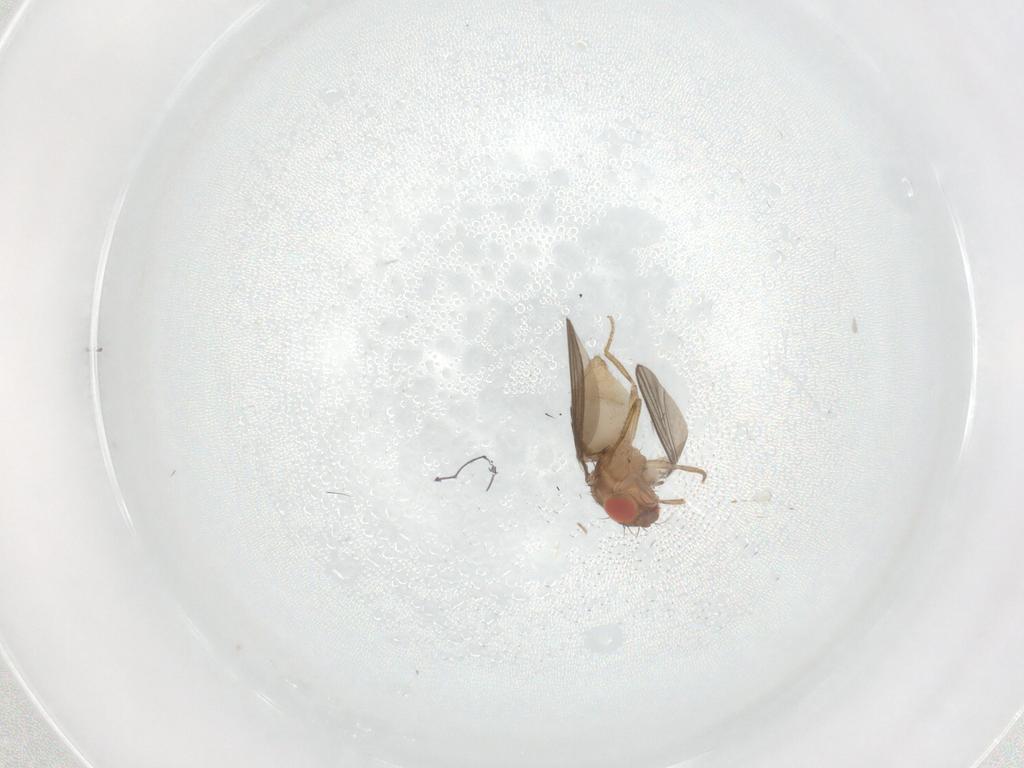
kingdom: Animalia
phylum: Arthropoda
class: Insecta
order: Diptera
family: Drosophilidae
